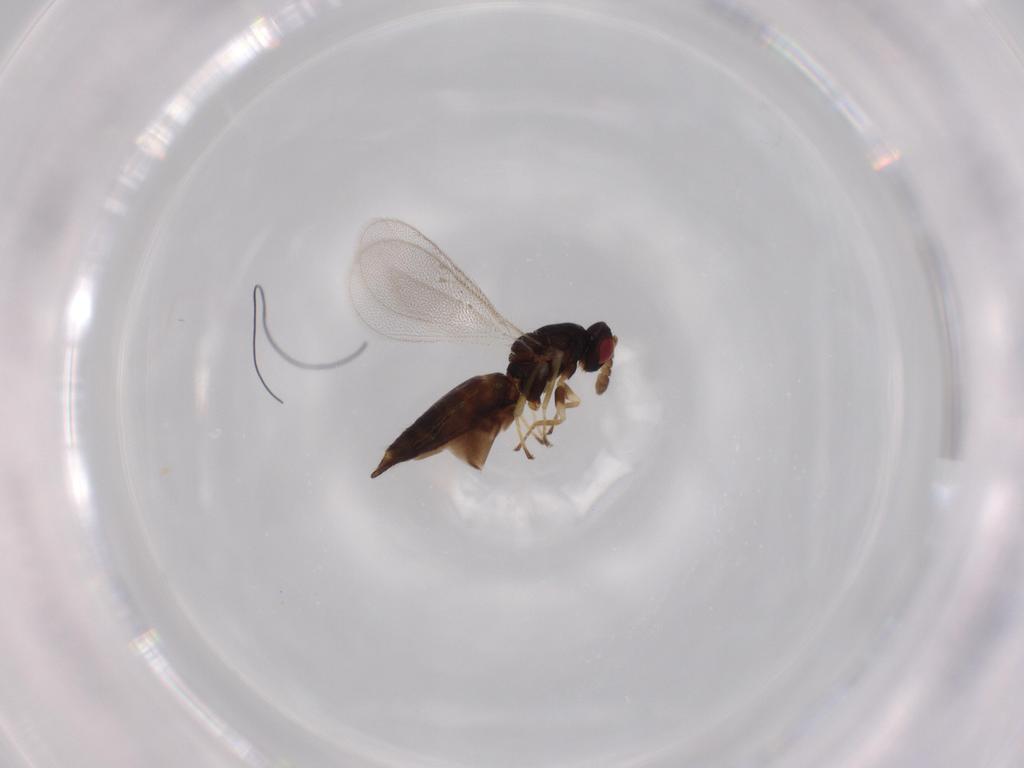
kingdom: Animalia
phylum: Arthropoda
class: Insecta
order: Hymenoptera
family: Eulophidae
